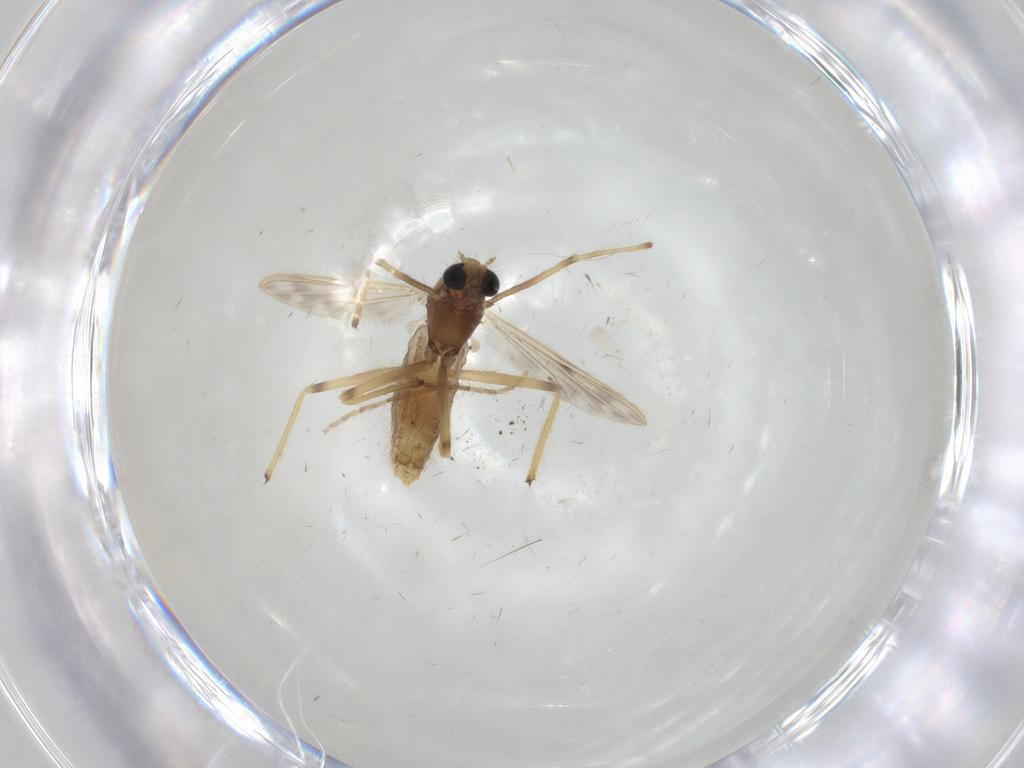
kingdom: Animalia
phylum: Arthropoda
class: Insecta
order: Diptera
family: Chironomidae
